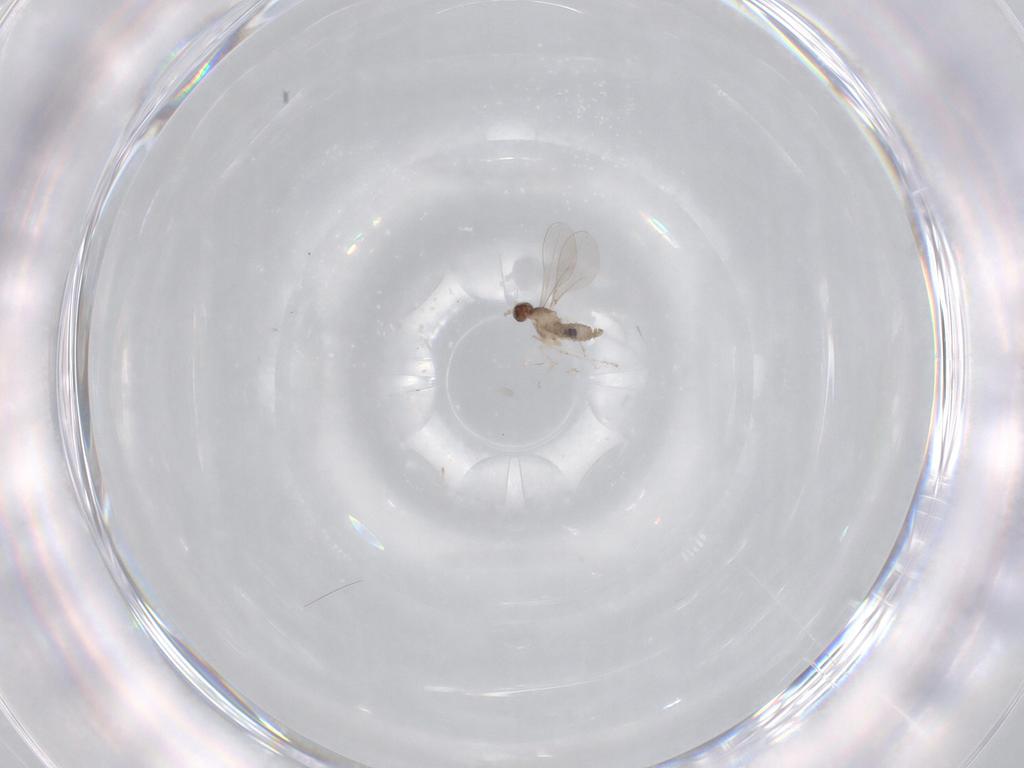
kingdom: Animalia
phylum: Arthropoda
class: Insecta
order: Diptera
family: Cecidomyiidae
